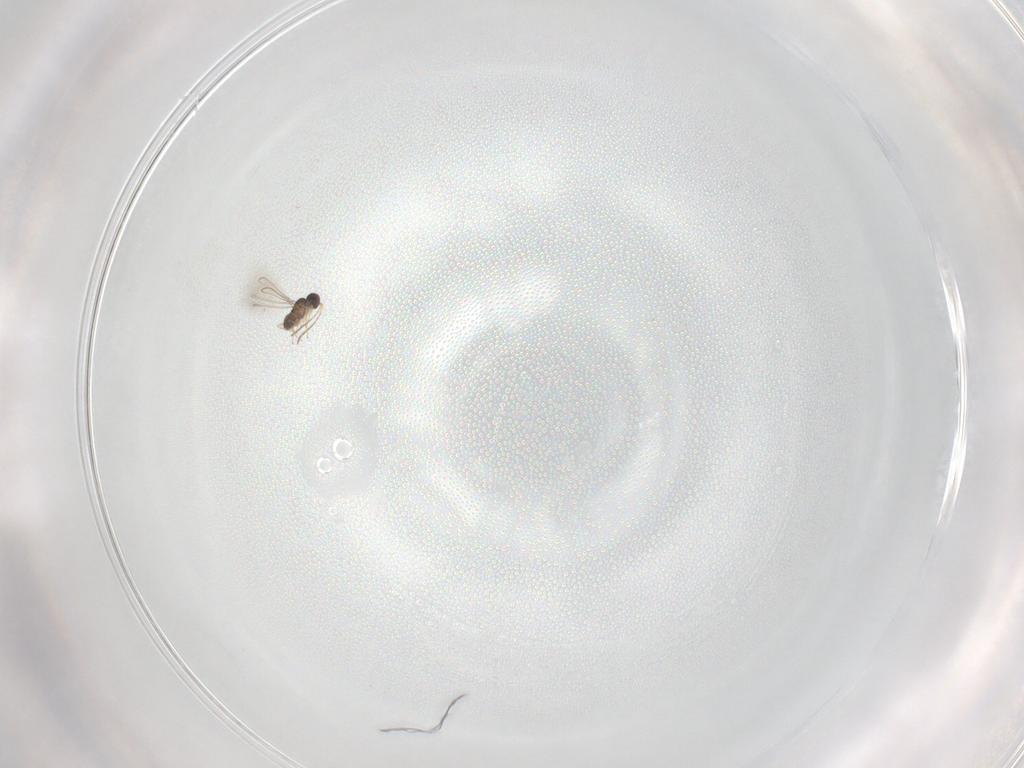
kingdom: Animalia
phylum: Arthropoda
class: Insecta
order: Hymenoptera
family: Mymaridae
